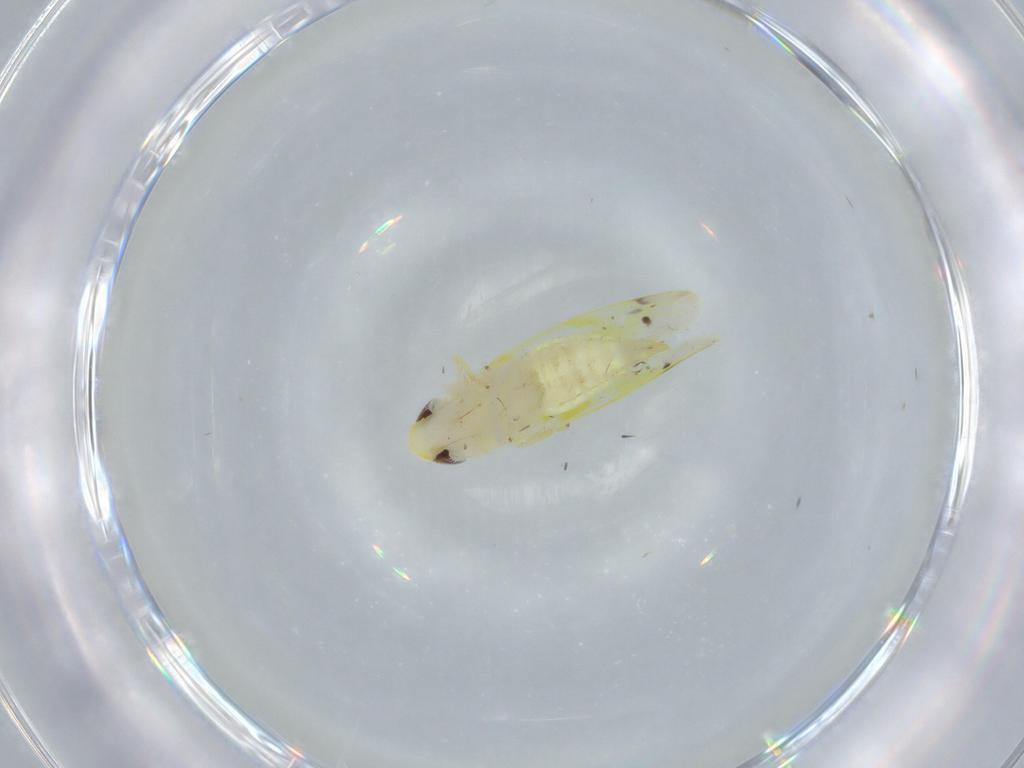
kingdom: Animalia
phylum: Arthropoda
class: Insecta
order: Hemiptera
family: Cicadellidae
